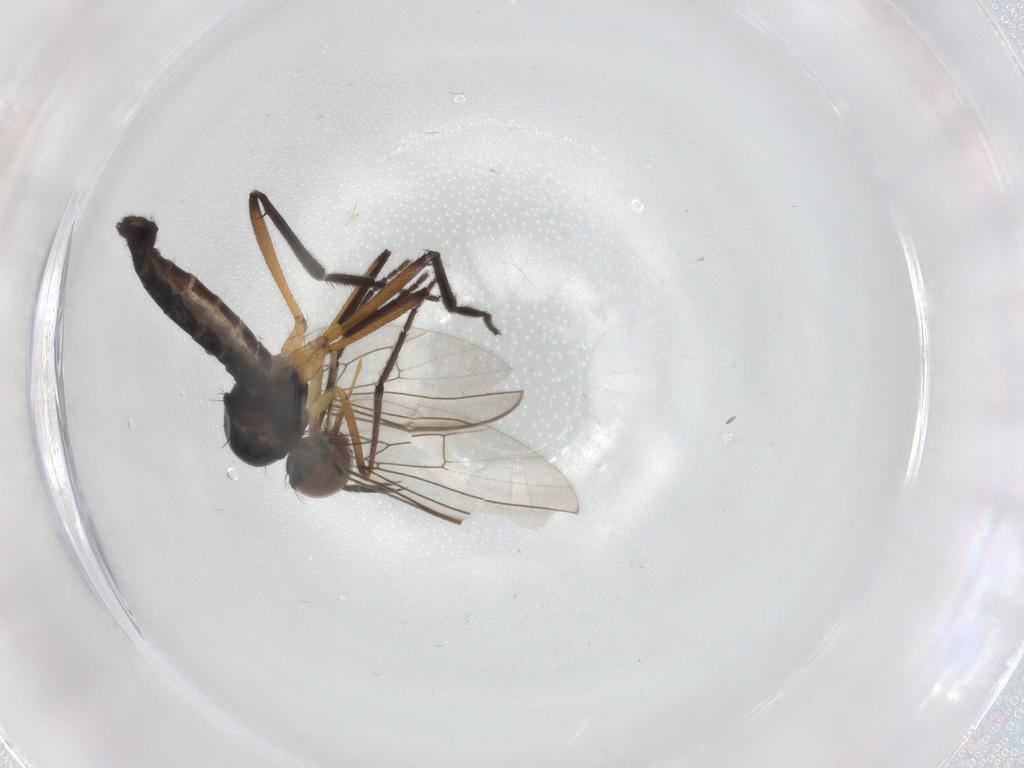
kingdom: Animalia
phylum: Arthropoda
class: Insecta
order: Diptera
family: Empididae
